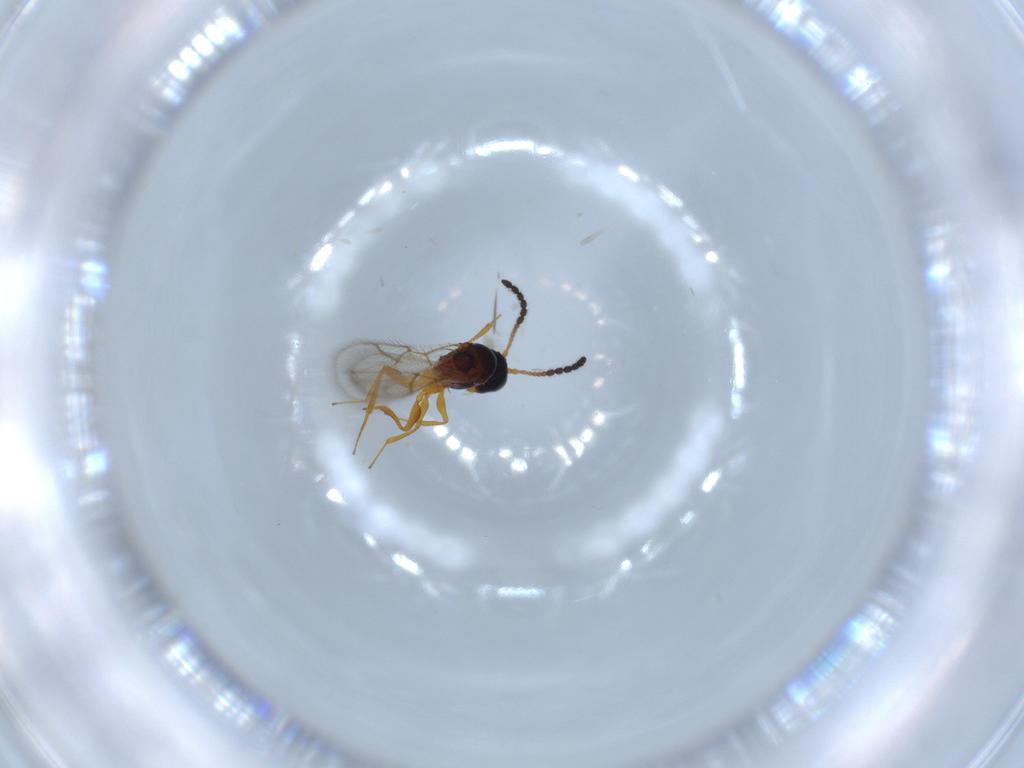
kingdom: Animalia
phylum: Arthropoda
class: Insecta
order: Hymenoptera
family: Figitidae
